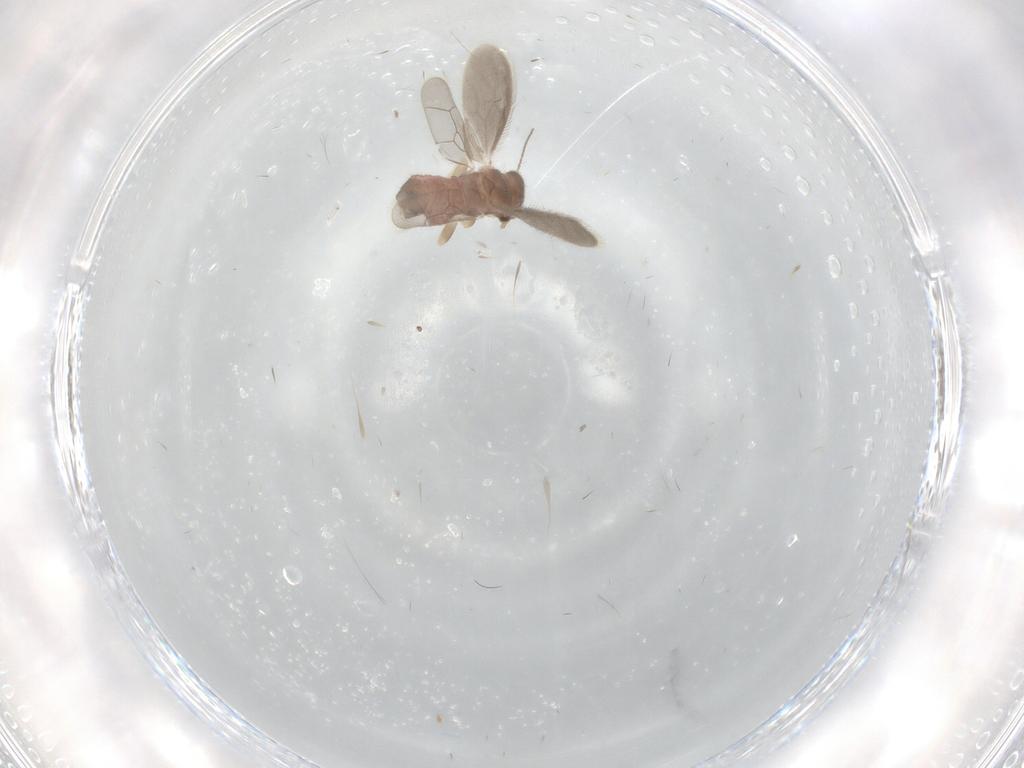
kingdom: Animalia
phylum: Arthropoda
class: Insecta
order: Psocodea
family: Archipsocidae
